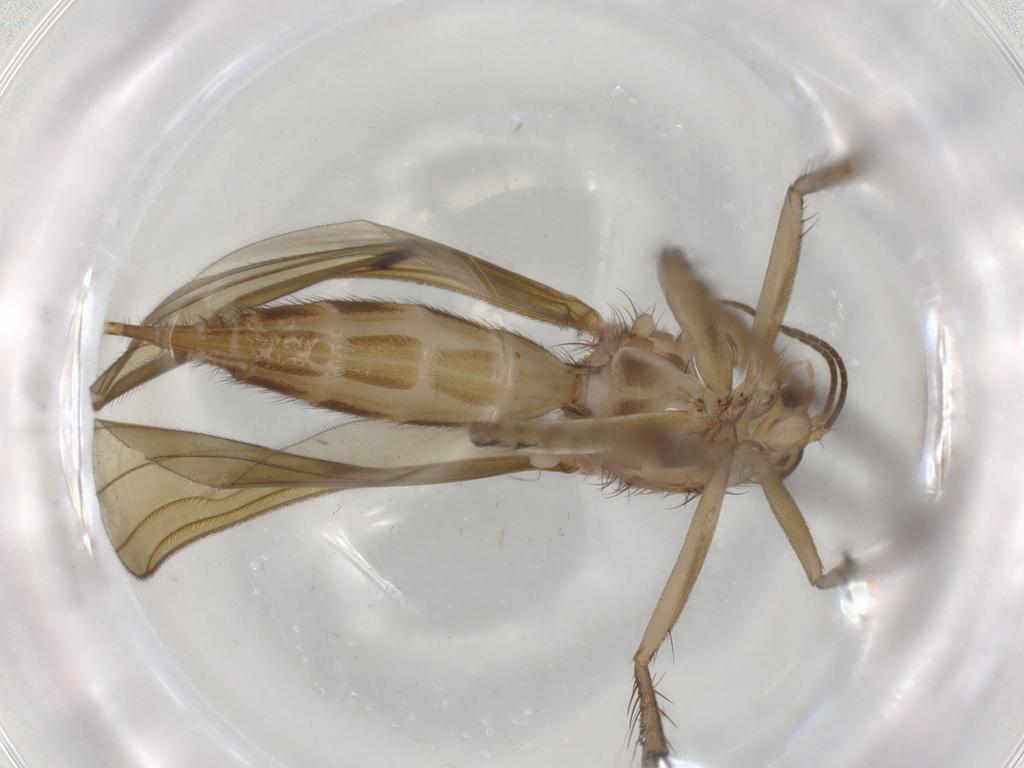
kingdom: Animalia
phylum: Arthropoda
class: Insecta
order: Diptera
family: Mycetophilidae
